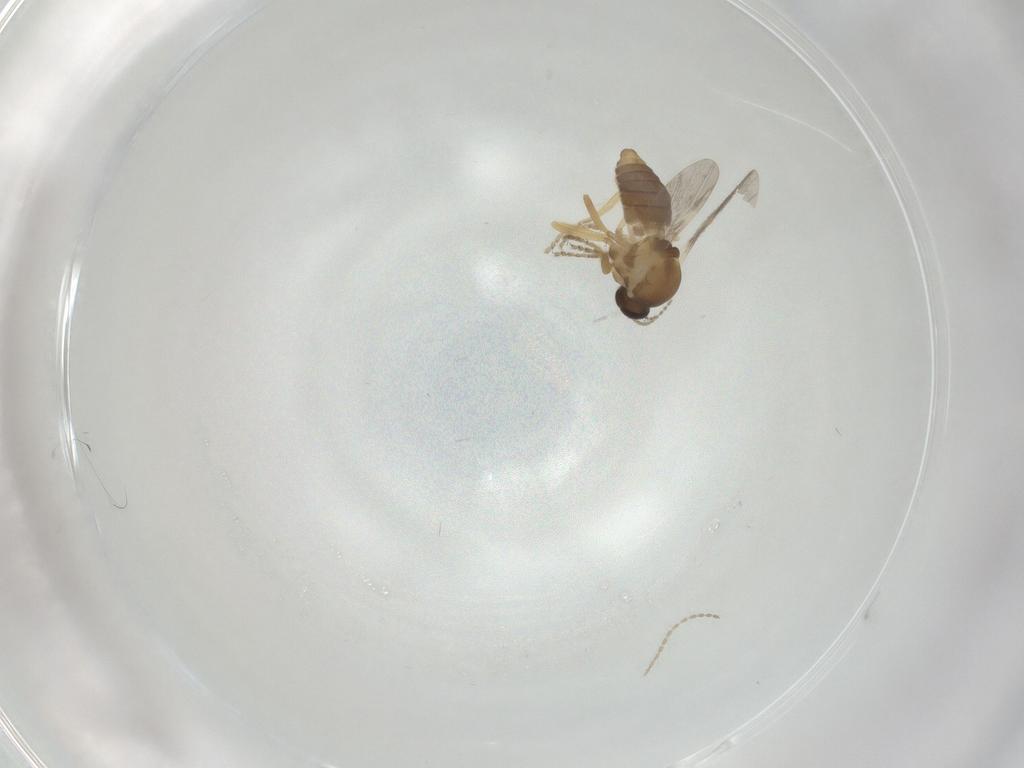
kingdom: Animalia
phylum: Arthropoda
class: Insecta
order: Diptera
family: Ceratopogonidae
